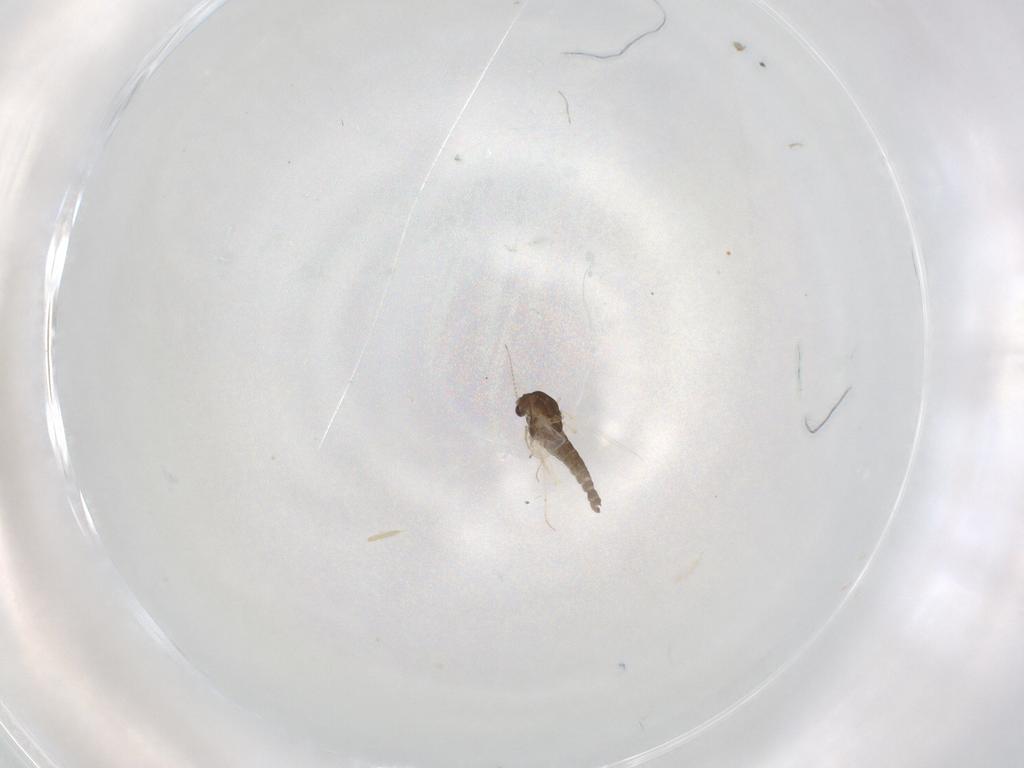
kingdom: Animalia
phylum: Arthropoda
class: Insecta
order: Diptera
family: Chironomidae
